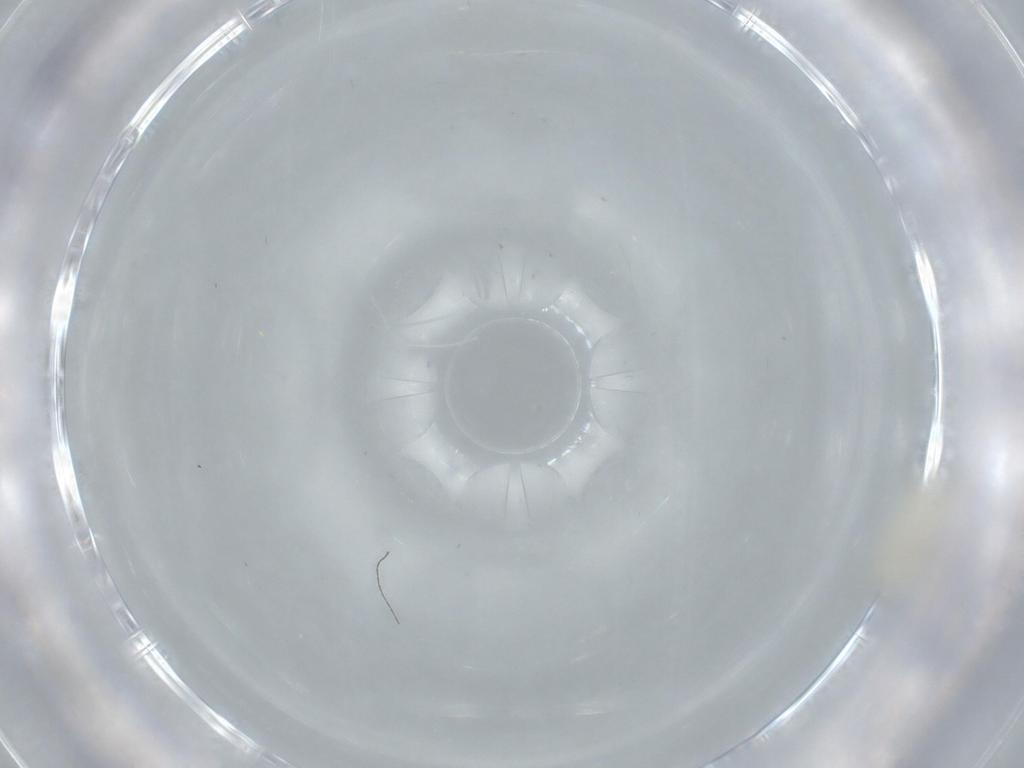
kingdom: Animalia
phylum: Arthropoda
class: Insecta
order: Diptera
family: Cecidomyiidae
